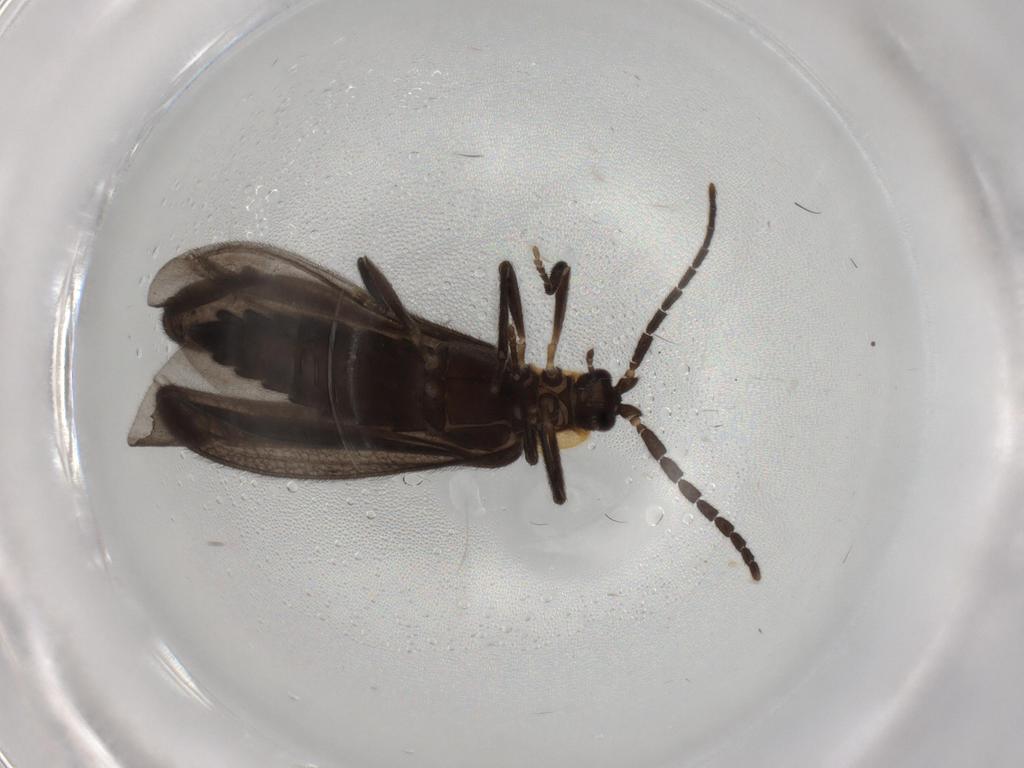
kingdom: Animalia
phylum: Arthropoda
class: Insecta
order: Coleoptera
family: Lycidae
